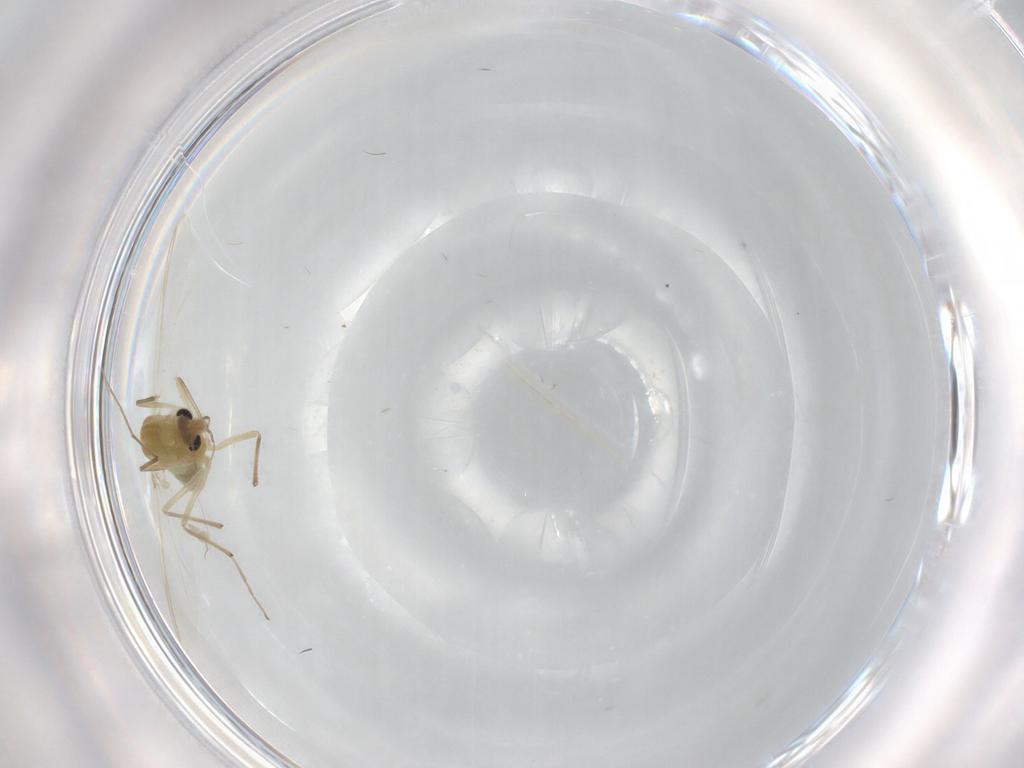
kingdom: Animalia
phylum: Arthropoda
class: Insecta
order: Diptera
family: Chironomidae
